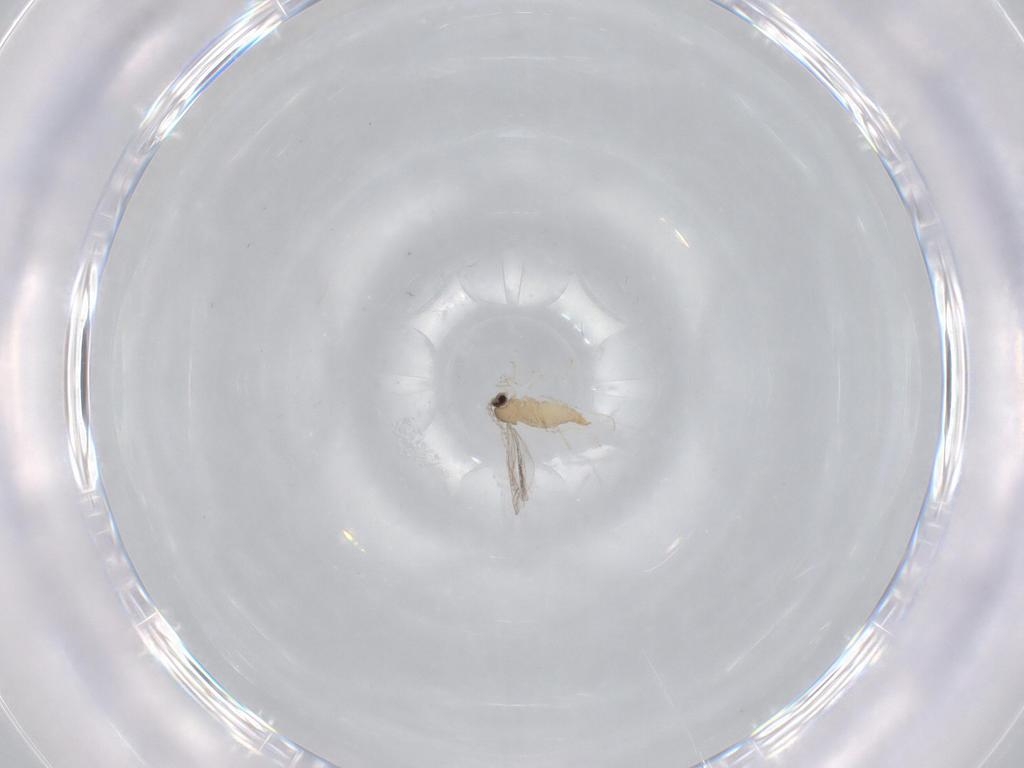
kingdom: Animalia
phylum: Arthropoda
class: Insecta
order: Diptera
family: Cecidomyiidae
